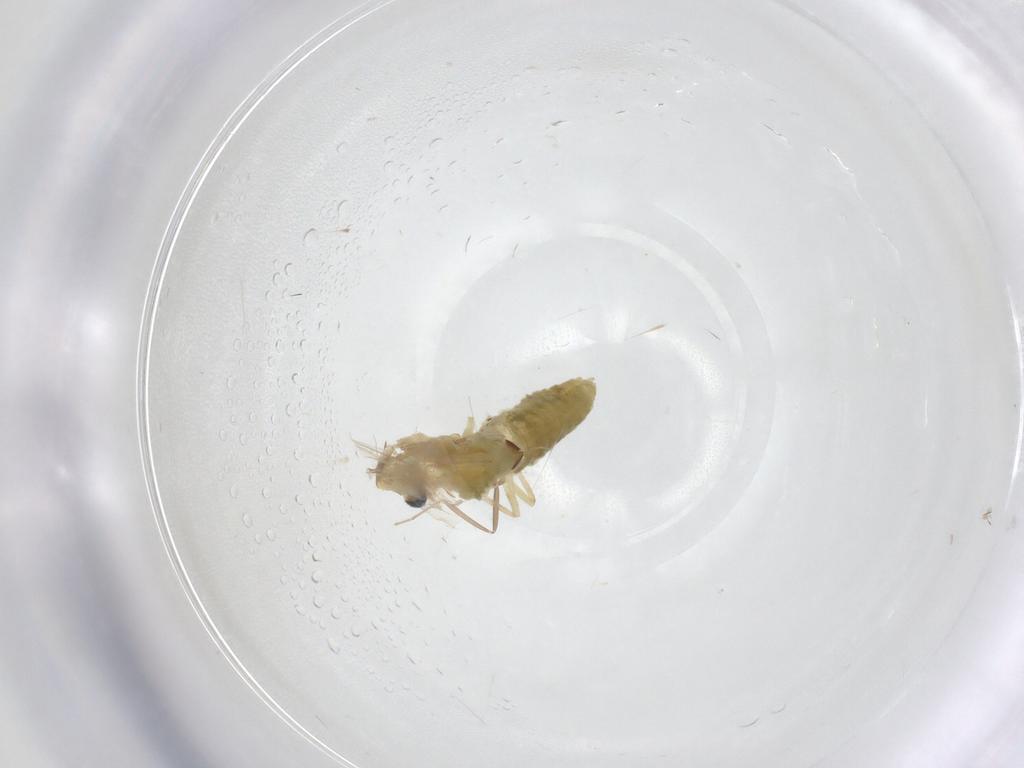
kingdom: Animalia
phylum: Arthropoda
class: Insecta
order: Diptera
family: Chironomidae
